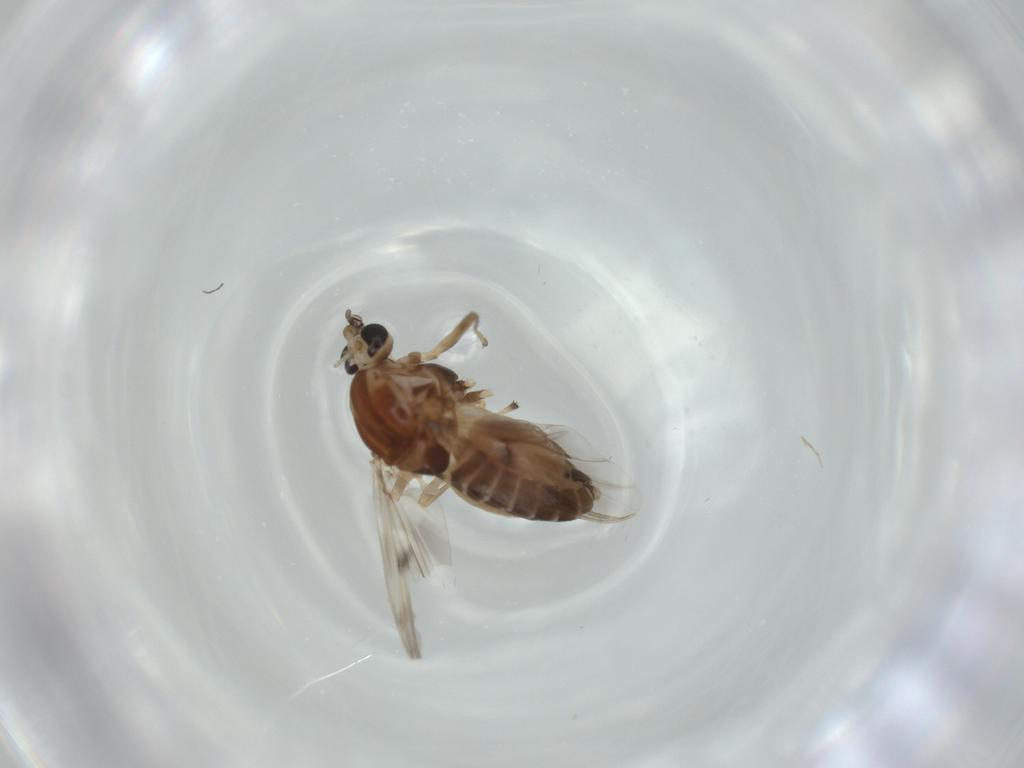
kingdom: Animalia
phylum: Arthropoda
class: Insecta
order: Diptera
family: Chironomidae
